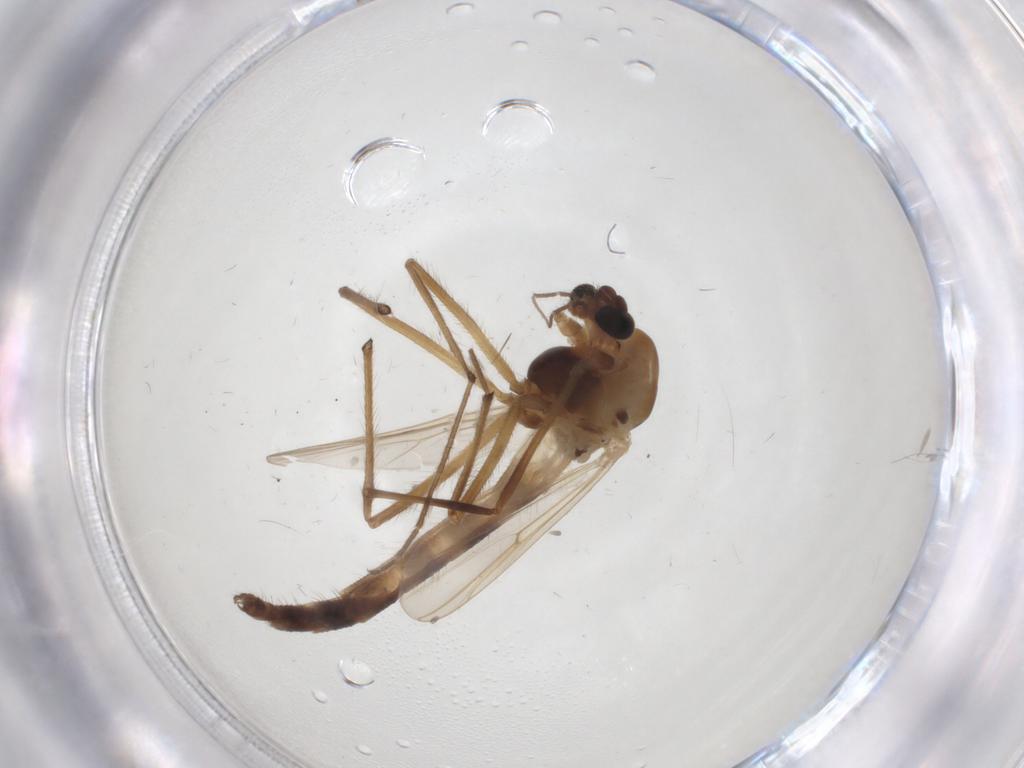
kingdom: Animalia
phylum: Arthropoda
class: Insecta
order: Diptera
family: Chironomidae
